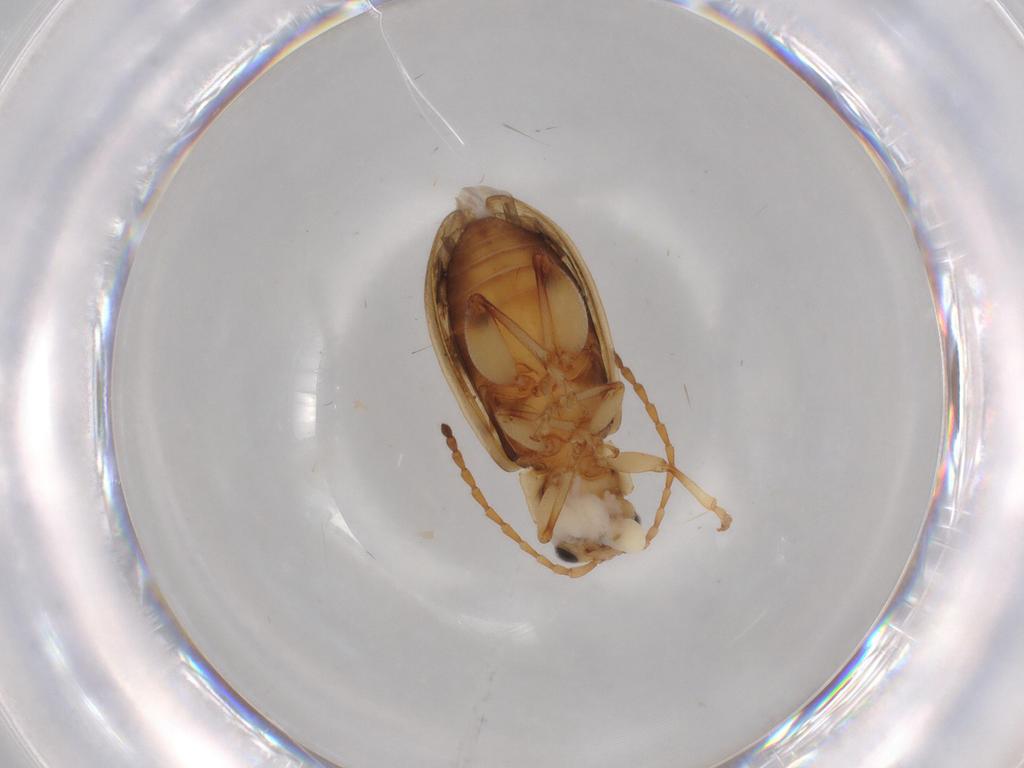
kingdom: Animalia
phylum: Arthropoda
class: Insecta
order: Coleoptera
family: Chrysomelidae
